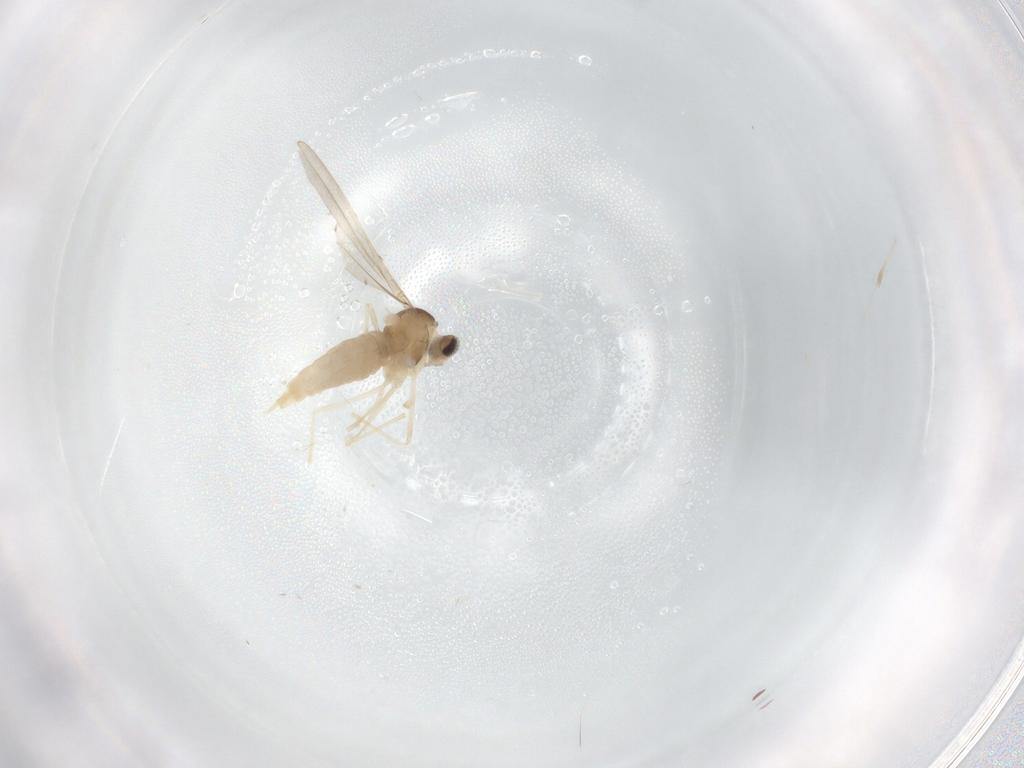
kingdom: Animalia
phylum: Arthropoda
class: Insecta
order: Diptera
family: Cecidomyiidae
